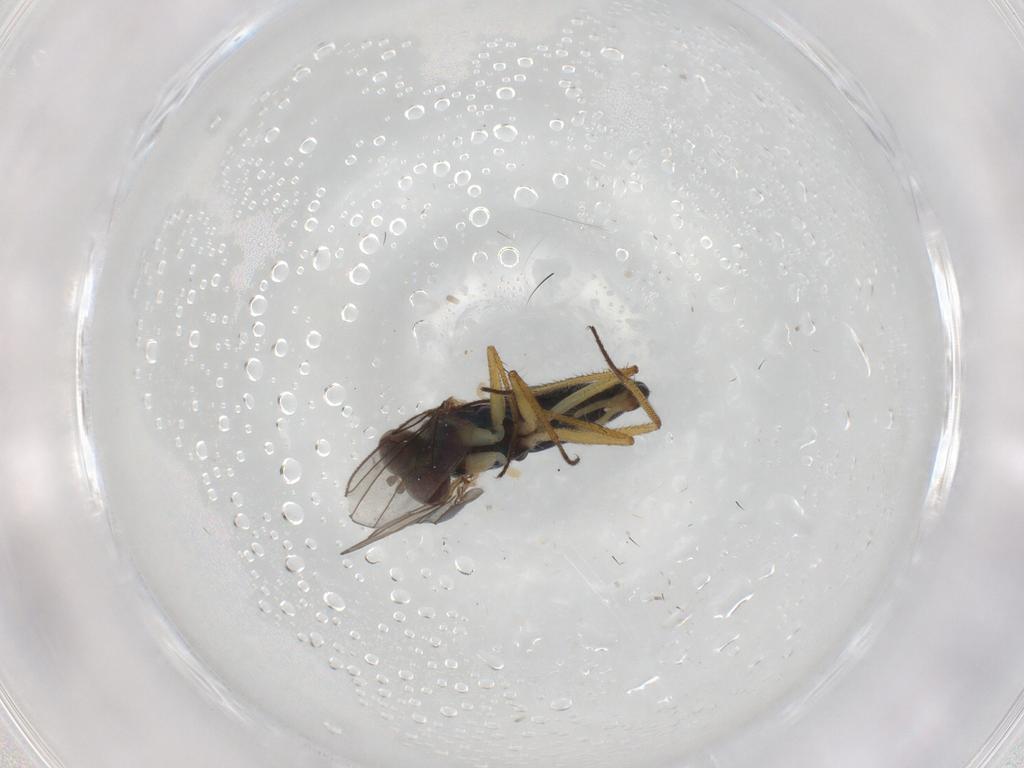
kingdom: Animalia
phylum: Arthropoda
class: Insecta
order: Diptera
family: Dolichopodidae
